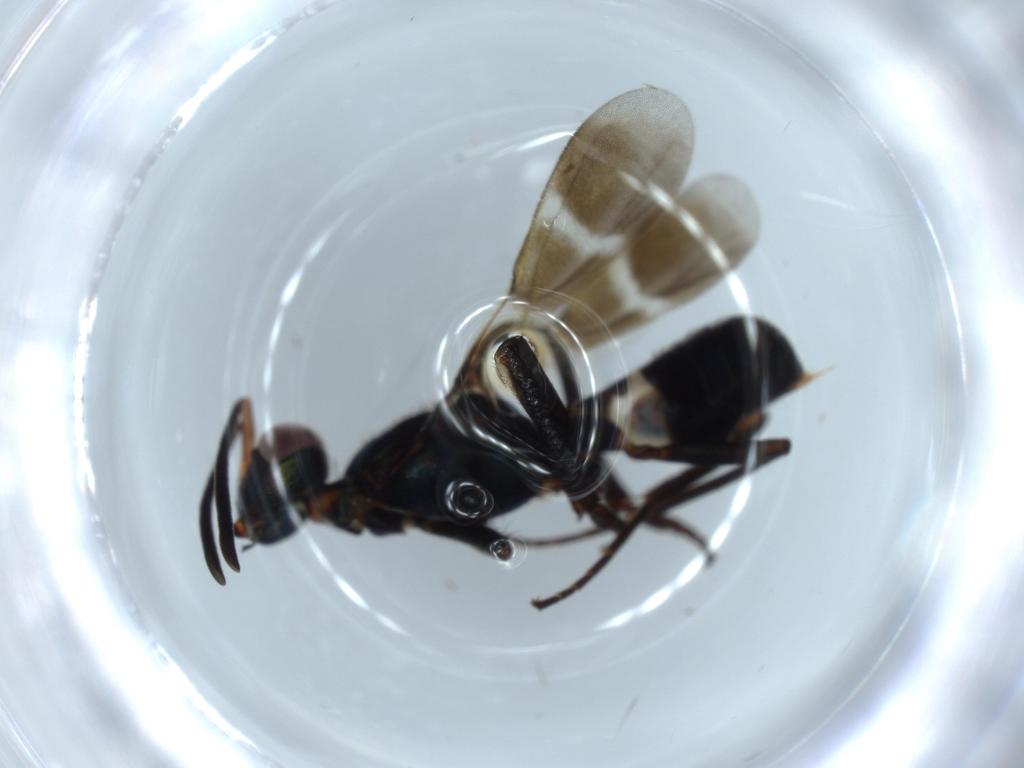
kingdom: Animalia
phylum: Arthropoda
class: Insecta
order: Hymenoptera
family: Eupelmidae
